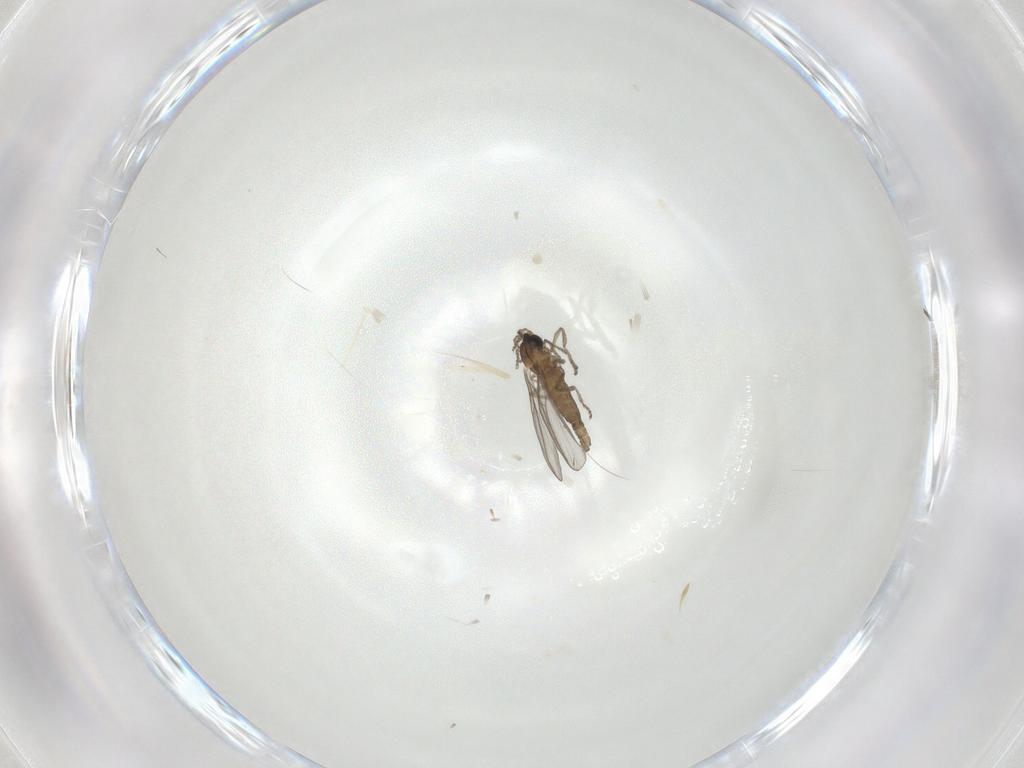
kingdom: Animalia
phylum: Arthropoda
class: Insecta
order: Diptera
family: Cecidomyiidae
